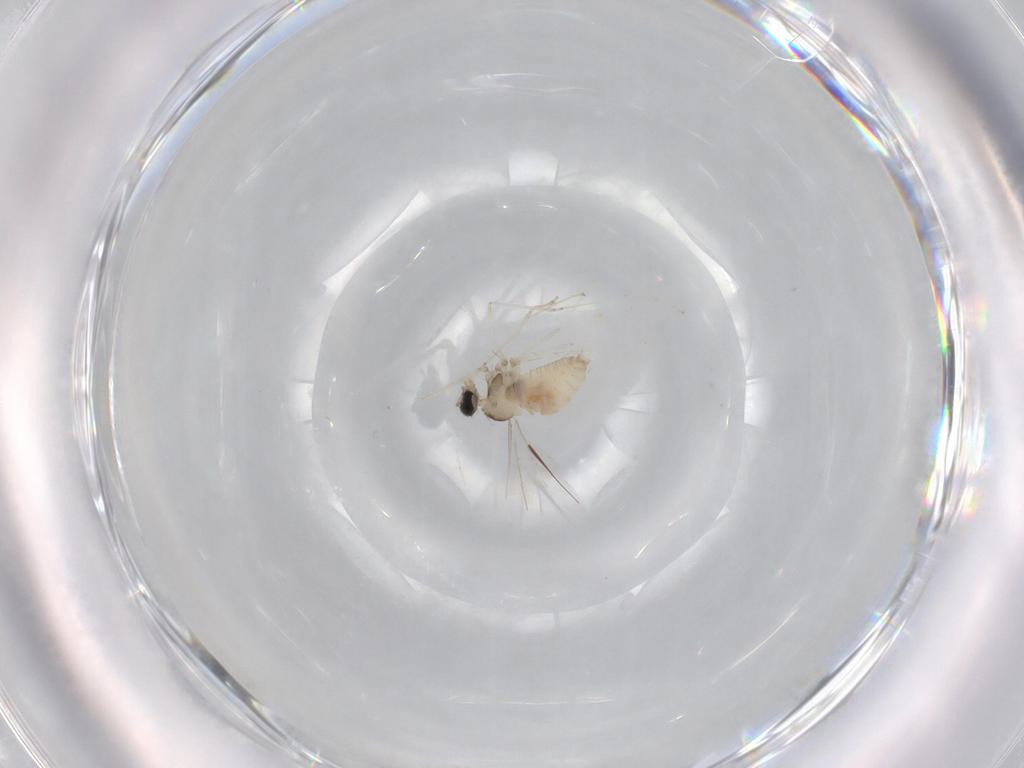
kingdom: Animalia
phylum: Arthropoda
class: Insecta
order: Diptera
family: Cecidomyiidae
